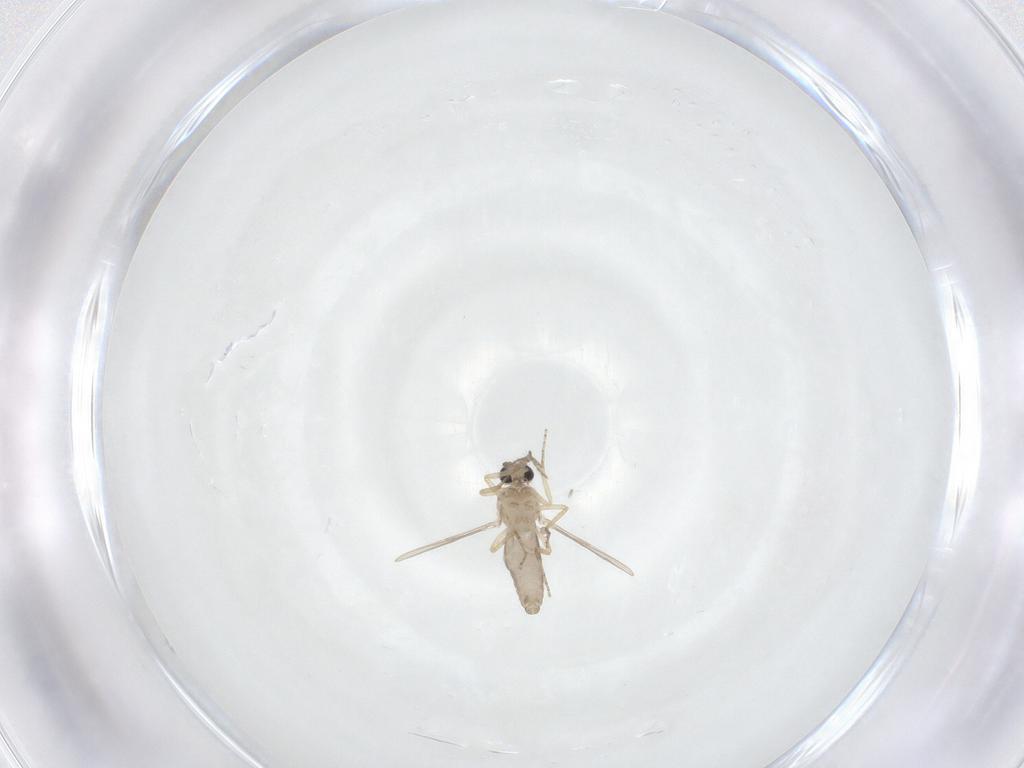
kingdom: Animalia
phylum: Arthropoda
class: Insecta
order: Diptera
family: Ceratopogonidae
